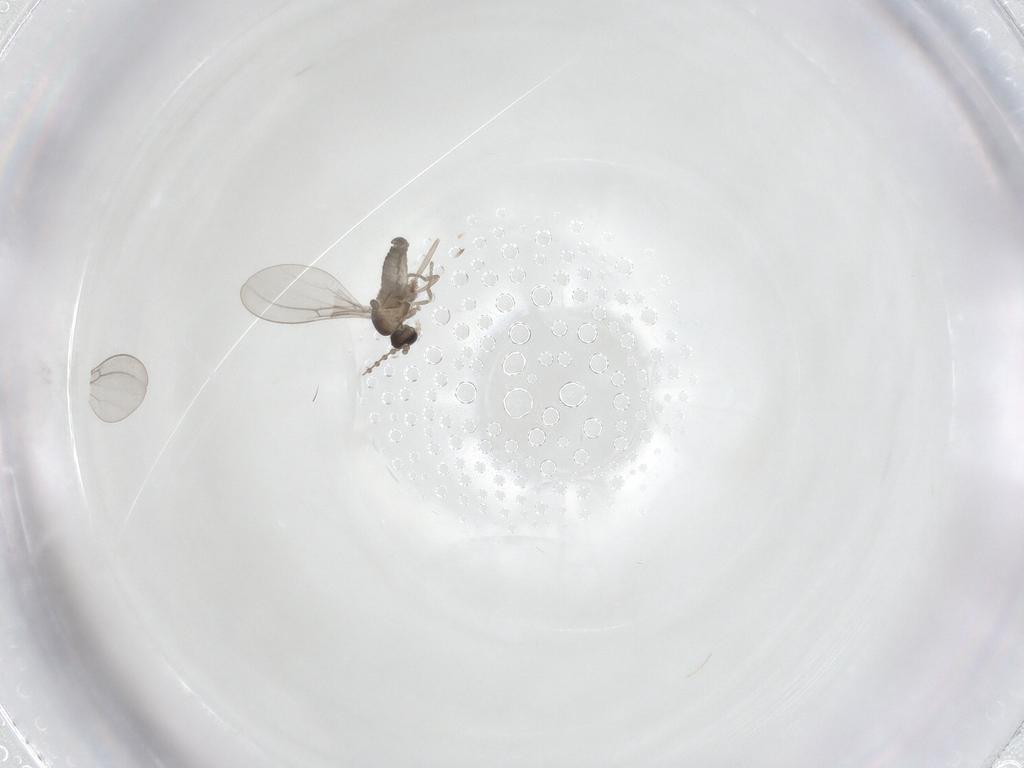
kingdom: Animalia
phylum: Arthropoda
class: Insecta
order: Diptera
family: Cecidomyiidae
